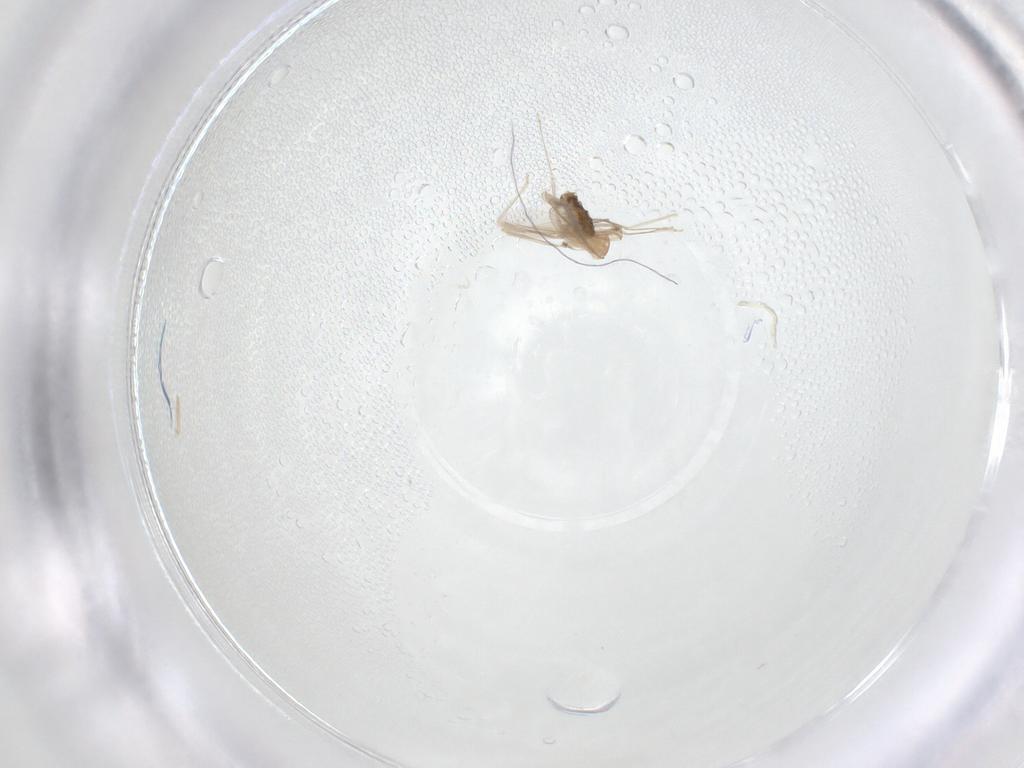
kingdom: Animalia
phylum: Arthropoda
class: Insecta
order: Diptera
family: Cecidomyiidae
